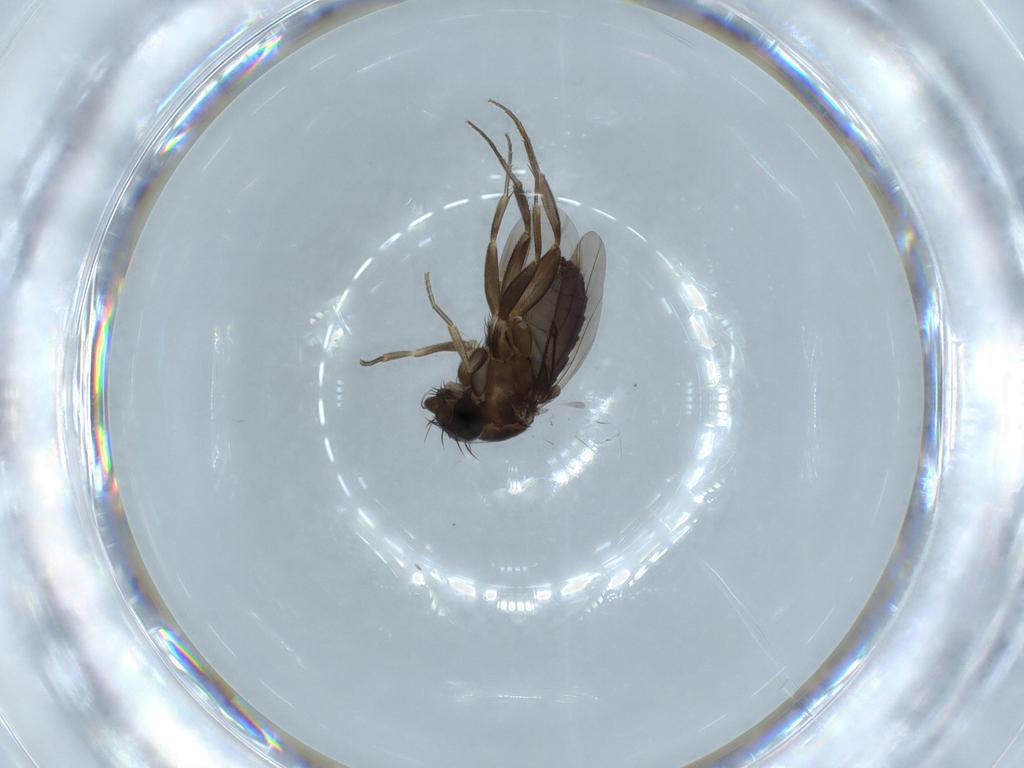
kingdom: Animalia
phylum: Arthropoda
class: Insecta
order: Diptera
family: Phoridae
